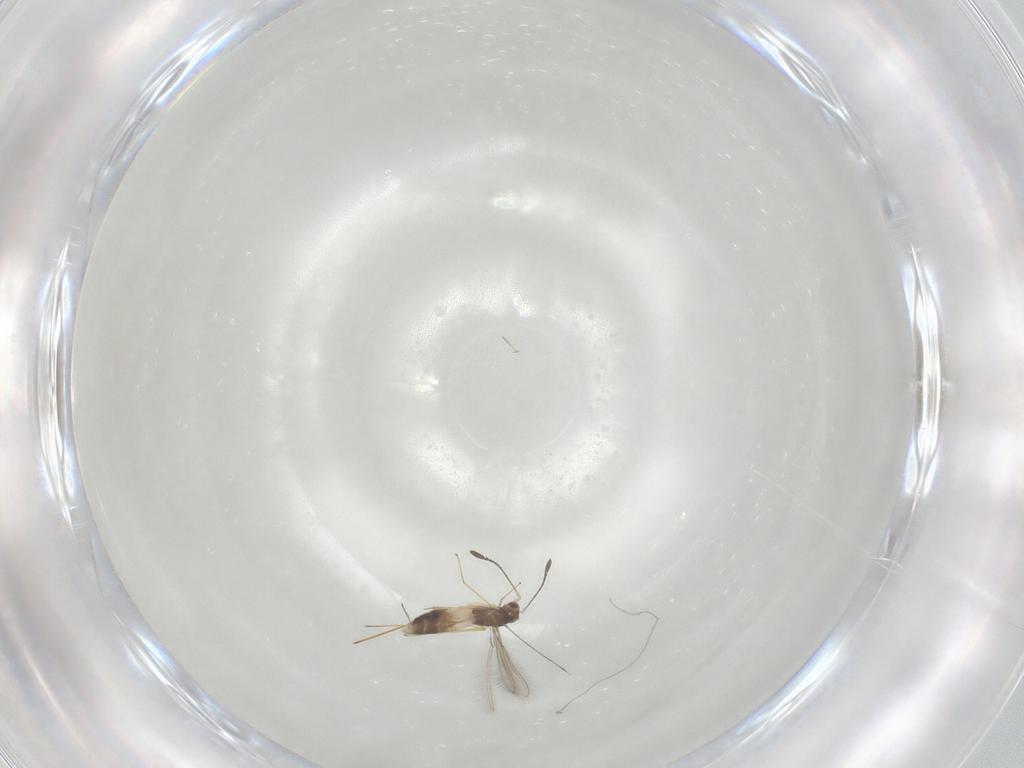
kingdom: Animalia
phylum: Arthropoda
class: Insecta
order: Hymenoptera
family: Mymaridae
